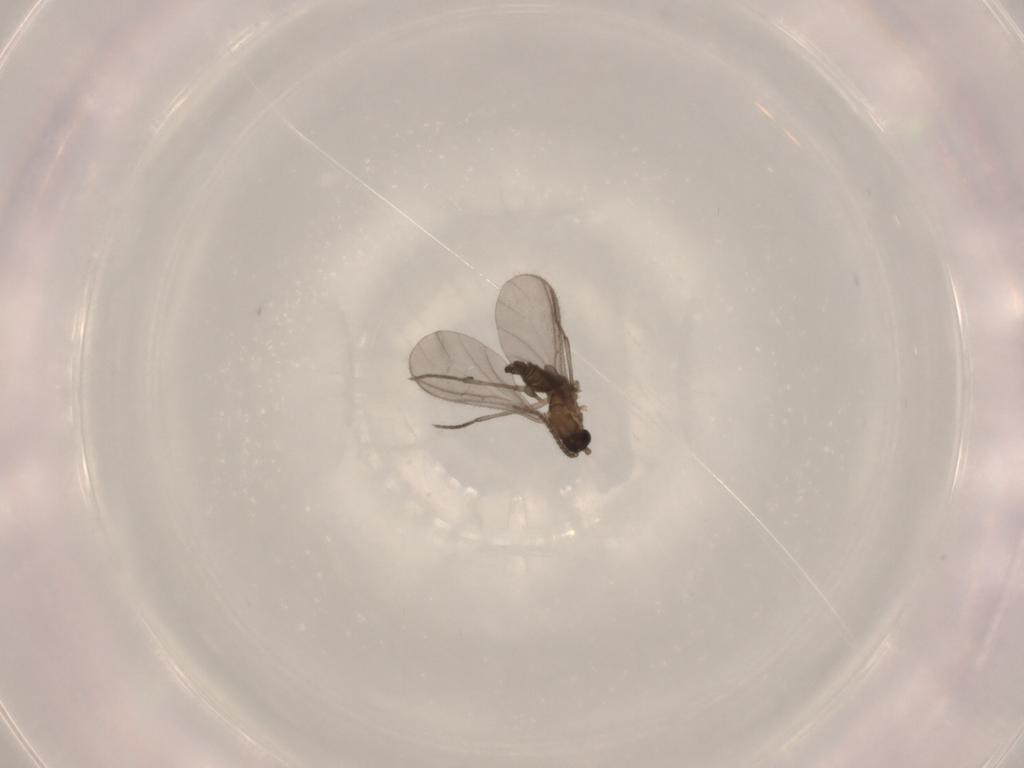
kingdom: Animalia
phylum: Arthropoda
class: Insecta
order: Diptera
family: Sciaridae
